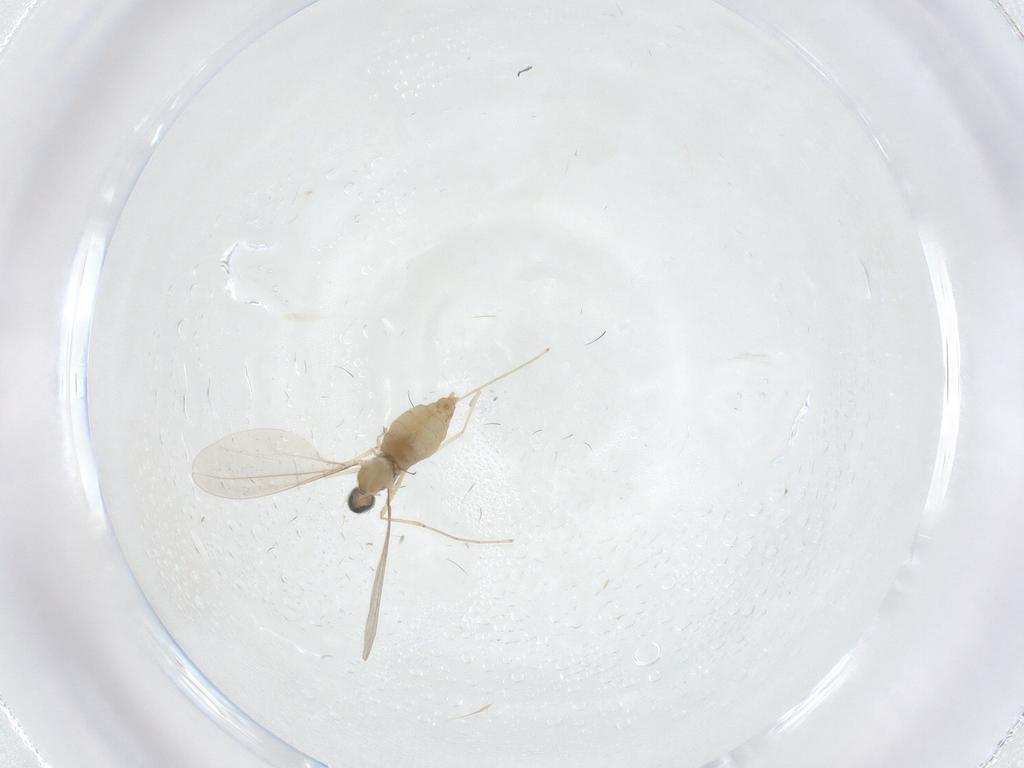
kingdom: Animalia
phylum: Arthropoda
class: Insecta
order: Diptera
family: Cecidomyiidae
